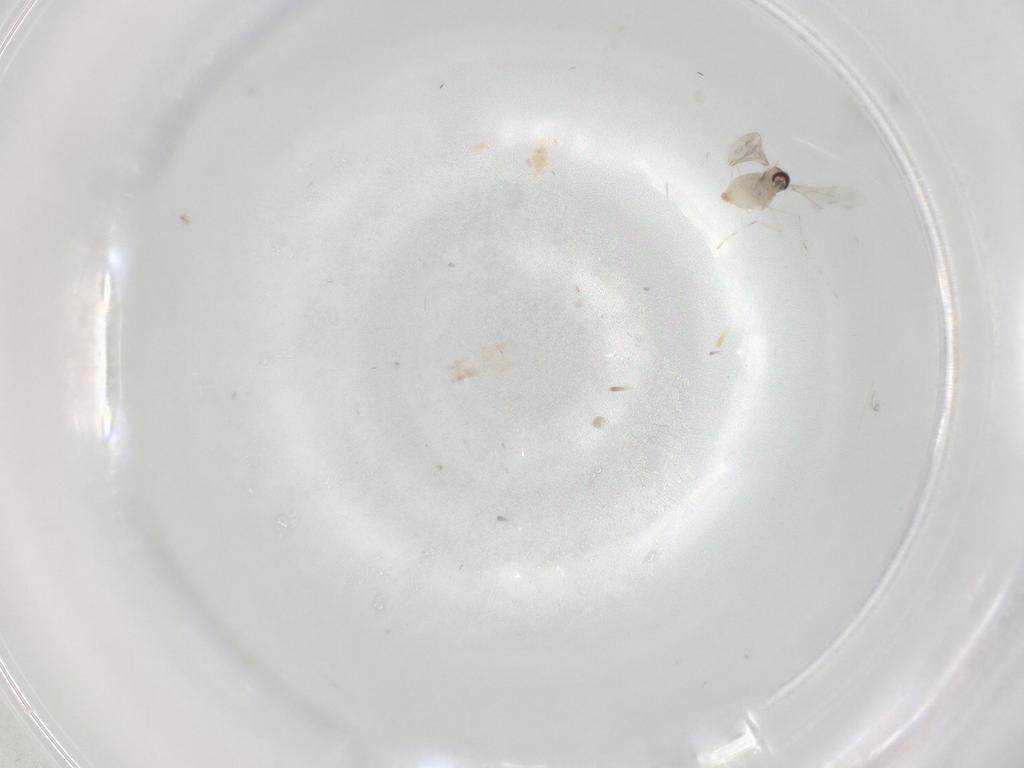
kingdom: Animalia
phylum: Arthropoda
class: Insecta
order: Diptera
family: Cecidomyiidae
